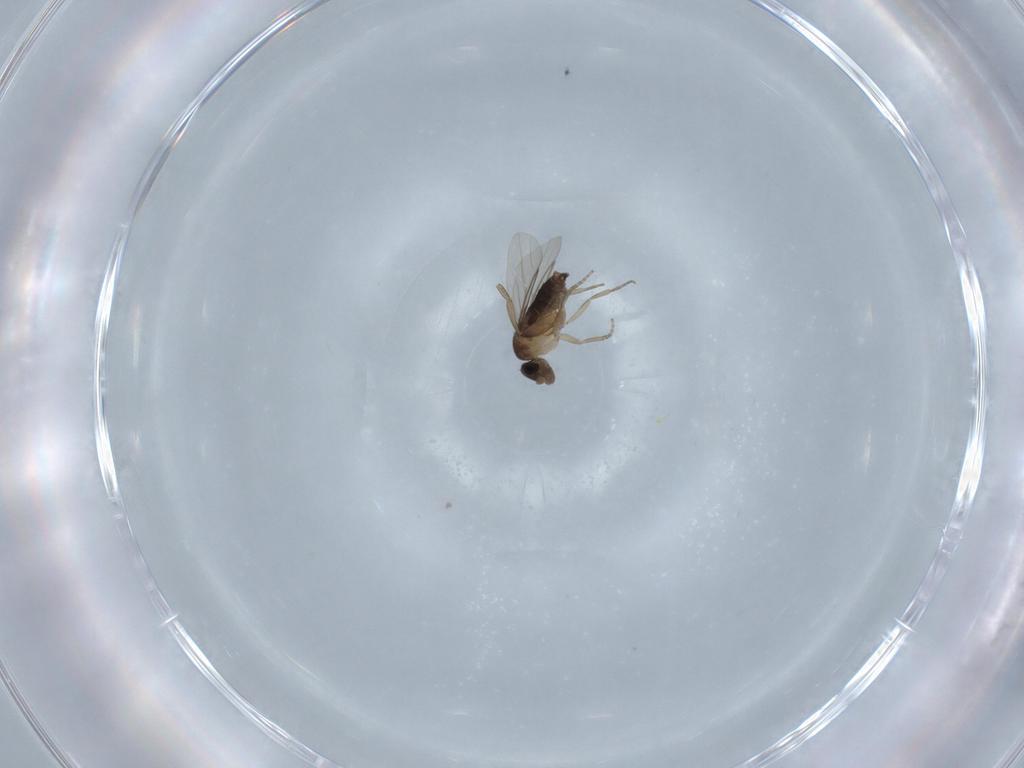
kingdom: Animalia
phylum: Arthropoda
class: Insecta
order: Diptera
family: Phoridae
